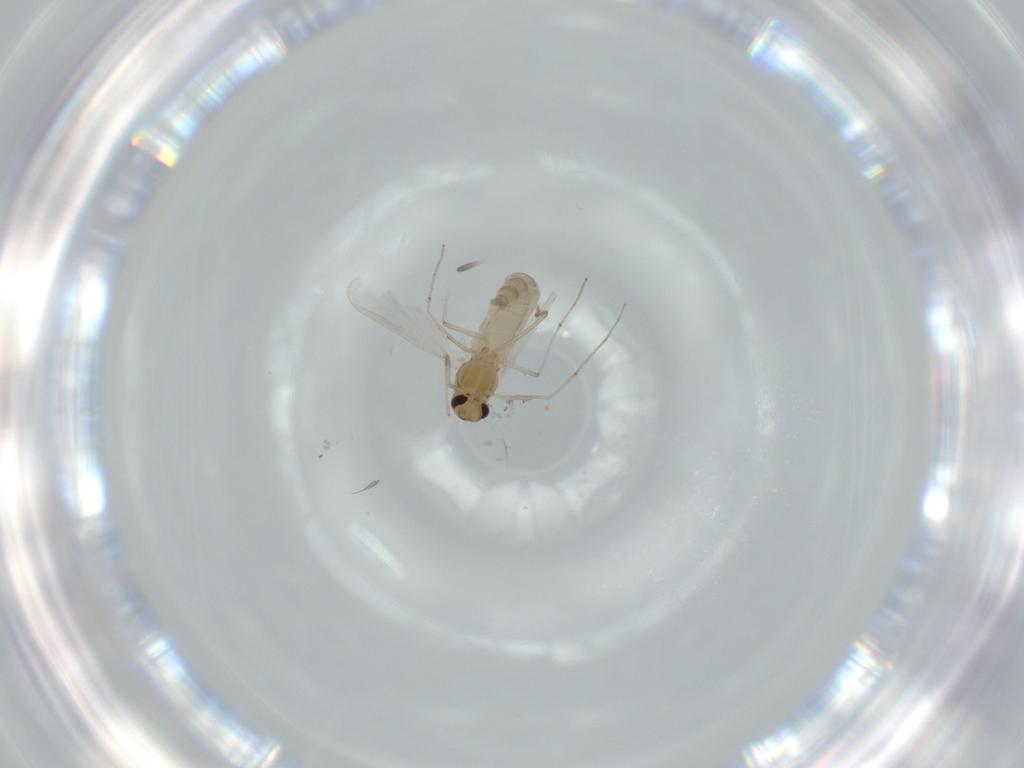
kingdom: Animalia
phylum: Arthropoda
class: Insecta
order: Diptera
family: Chironomidae
